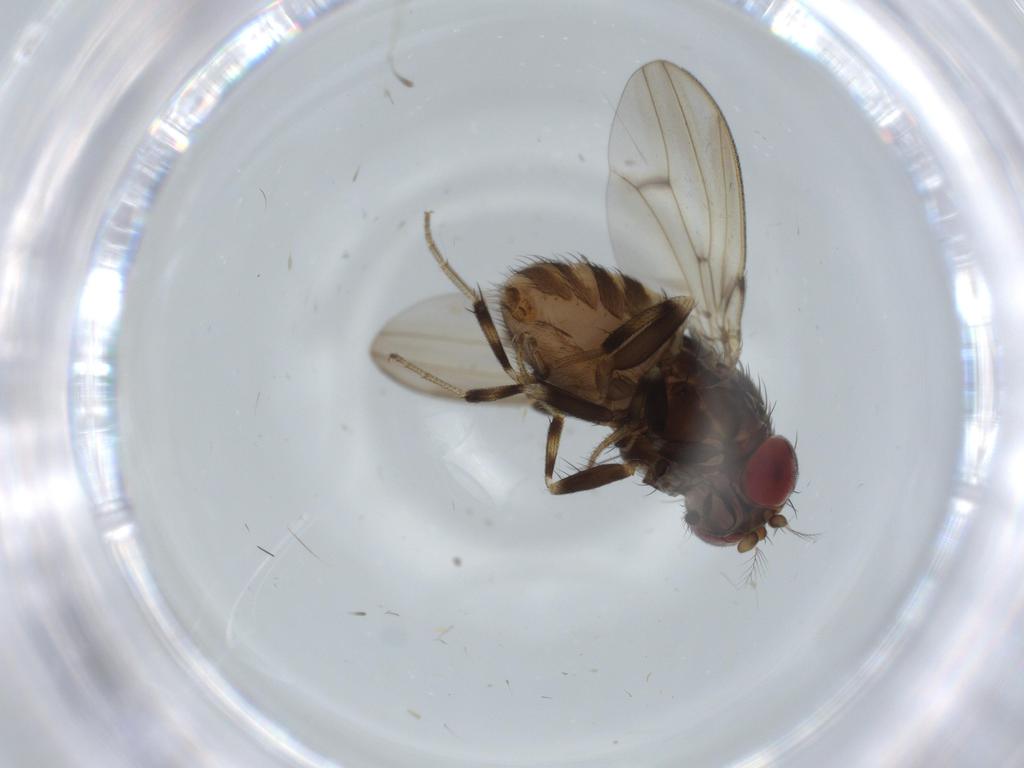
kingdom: Animalia
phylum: Arthropoda
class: Insecta
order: Diptera
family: Drosophilidae
